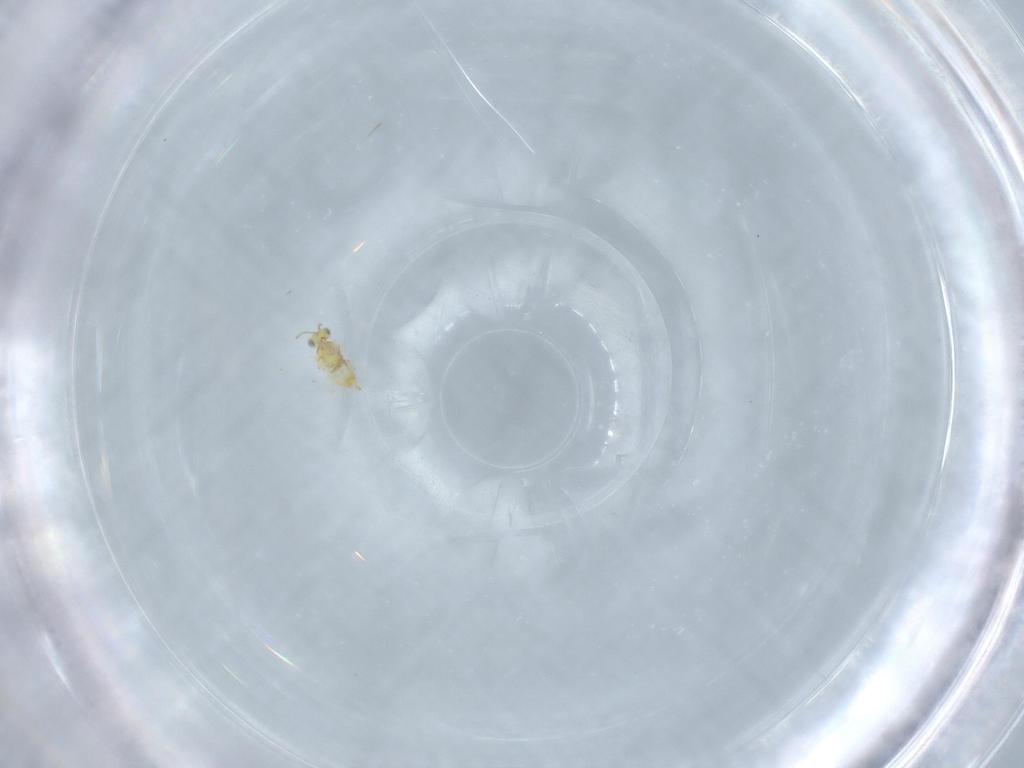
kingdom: Animalia
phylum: Arthropoda
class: Insecta
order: Hymenoptera
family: Aphelinidae
